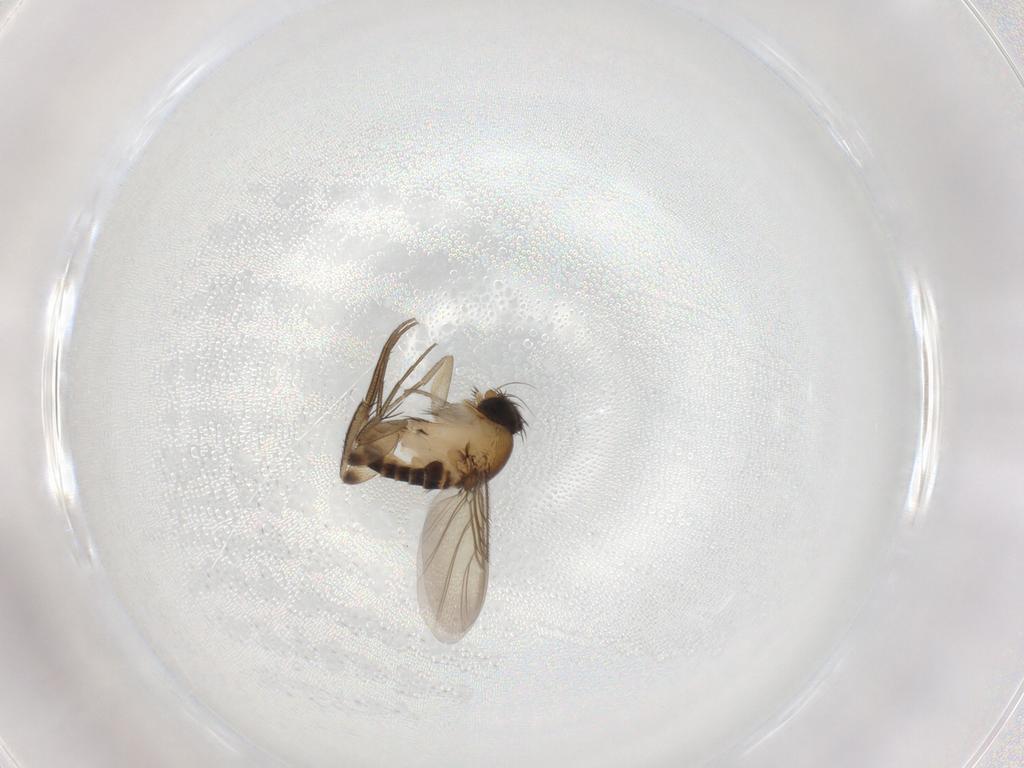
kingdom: Animalia
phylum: Arthropoda
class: Insecta
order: Diptera
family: Phoridae
